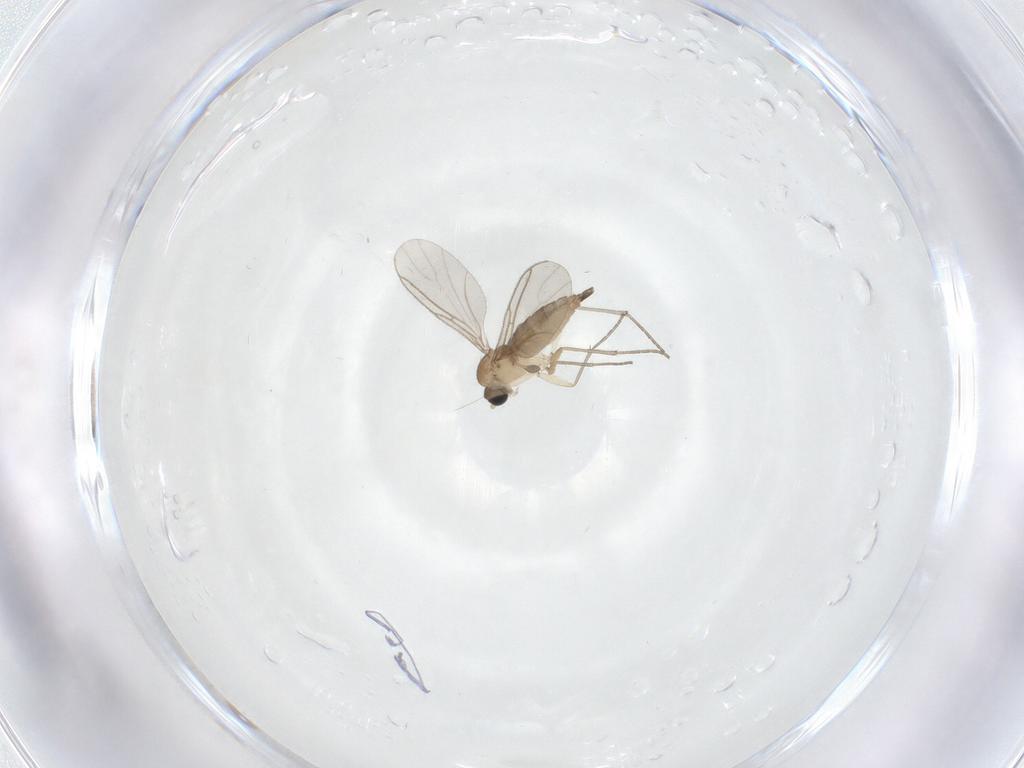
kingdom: Animalia
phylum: Arthropoda
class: Insecta
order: Diptera
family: Sciaridae
